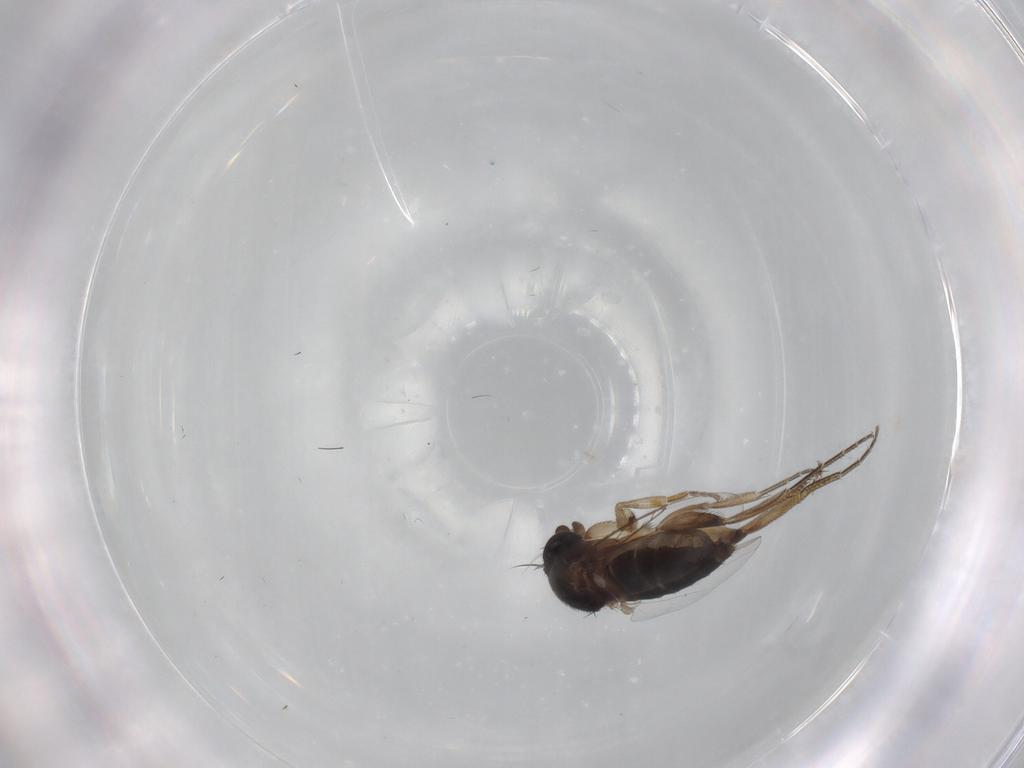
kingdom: Animalia
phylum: Arthropoda
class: Insecta
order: Diptera
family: Phoridae
